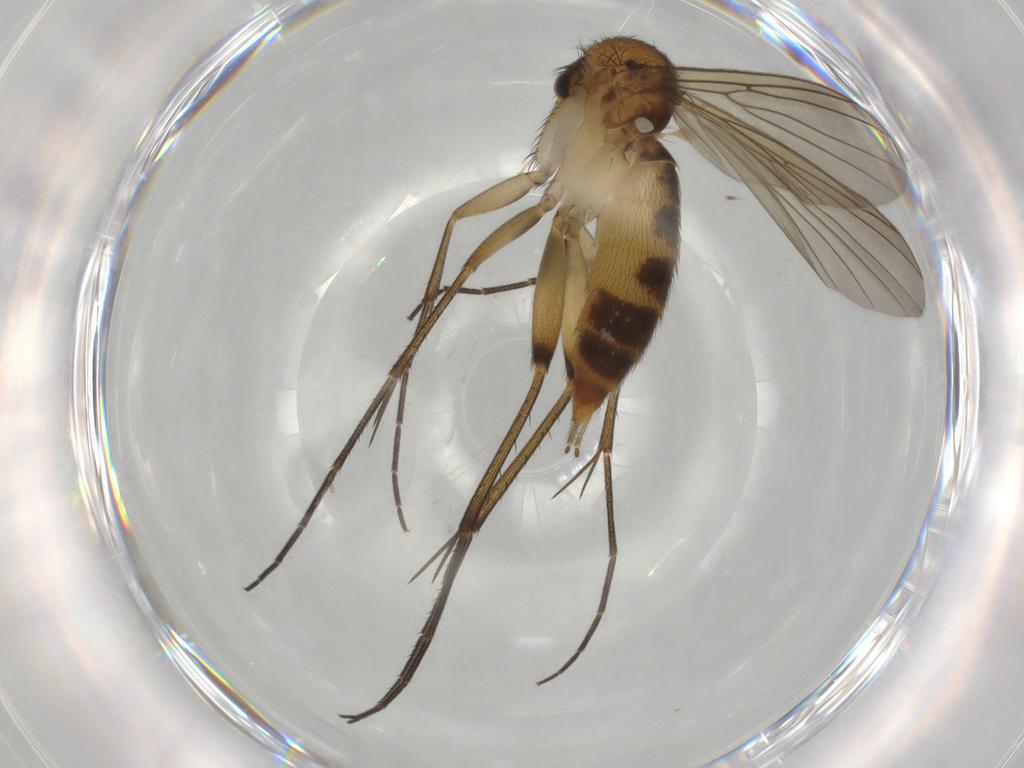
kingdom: Animalia
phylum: Arthropoda
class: Insecta
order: Diptera
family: Mycetophilidae
